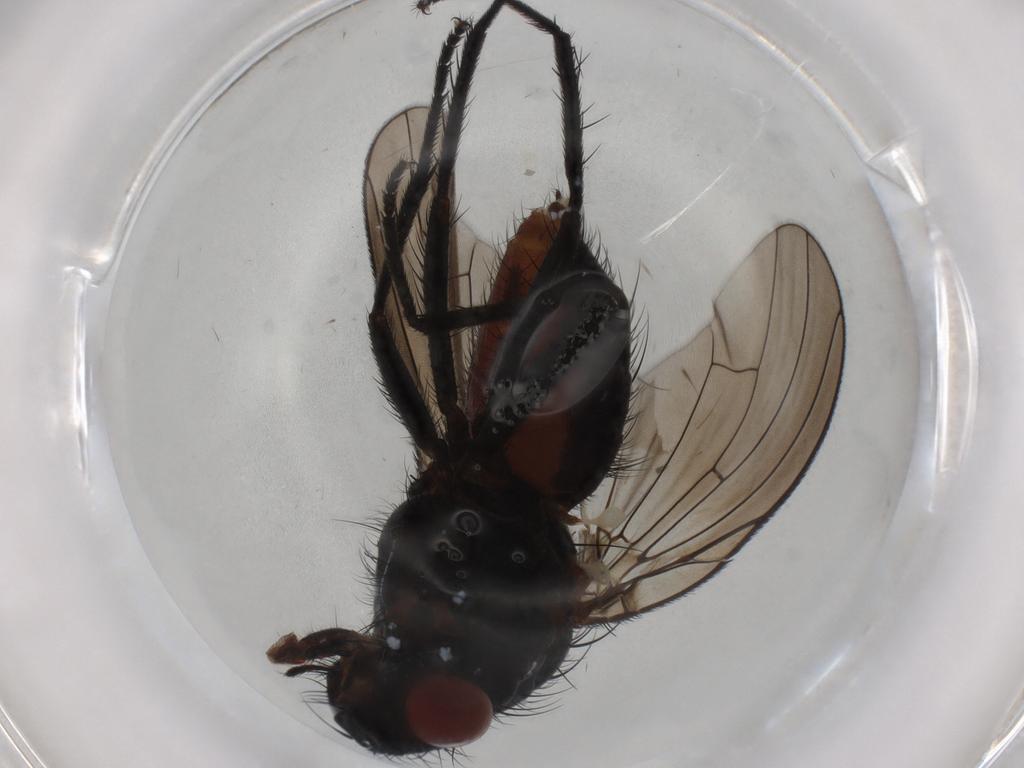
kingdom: Animalia
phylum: Arthropoda
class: Insecta
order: Diptera
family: Anthomyiidae
